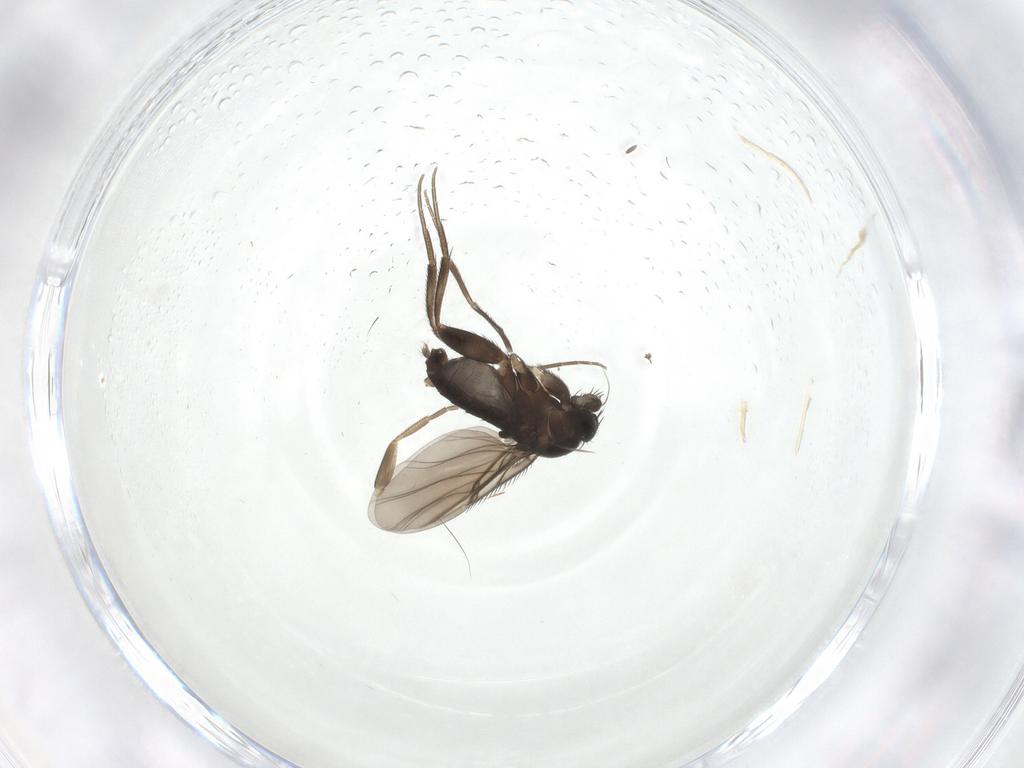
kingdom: Animalia
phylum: Arthropoda
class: Insecta
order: Diptera
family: Phoridae
